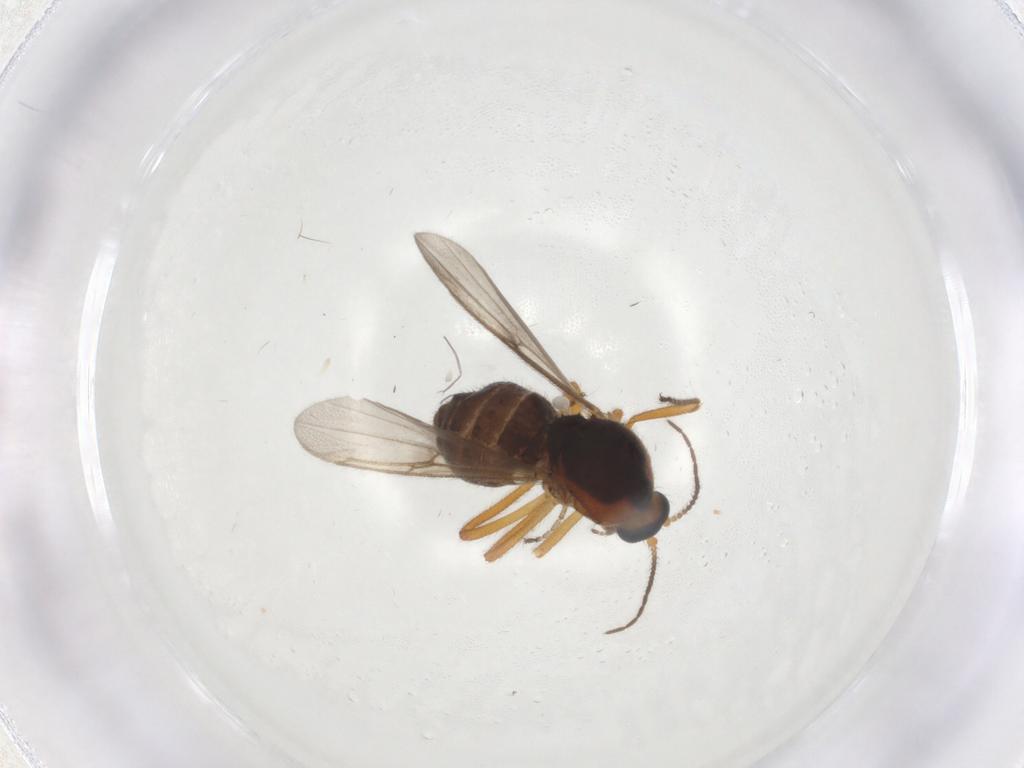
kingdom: Animalia
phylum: Arthropoda
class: Insecta
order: Diptera
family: Ceratopogonidae
